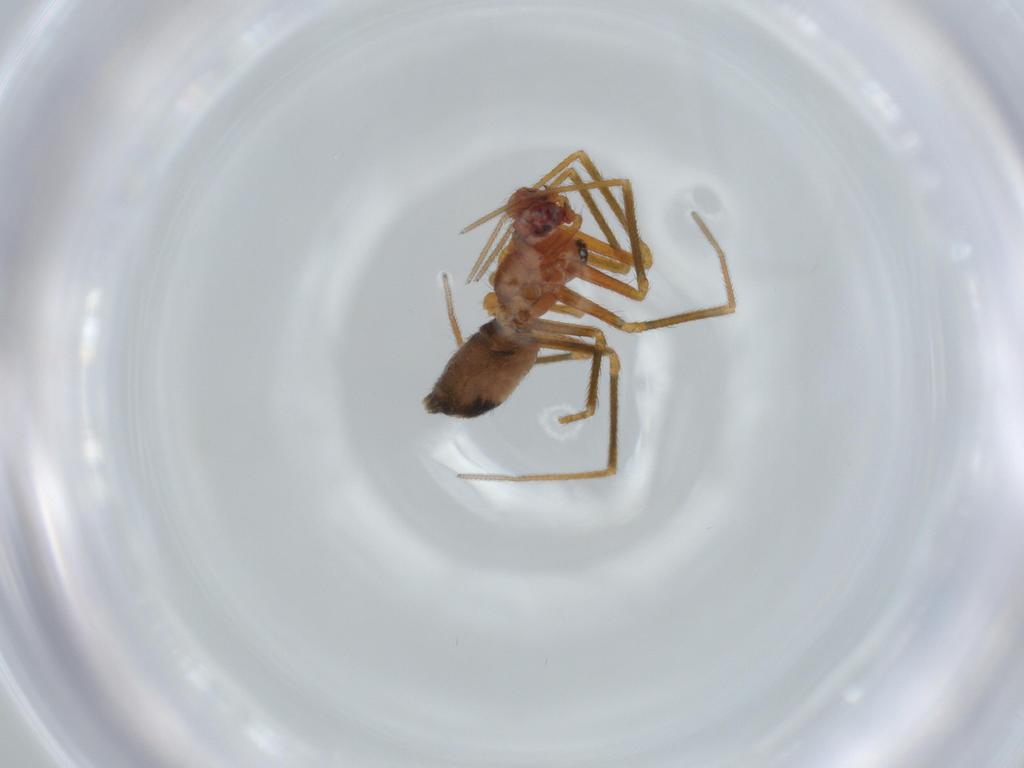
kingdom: Animalia
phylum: Arthropoda
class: Arachnida
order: Araneae
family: Linyphiidae
